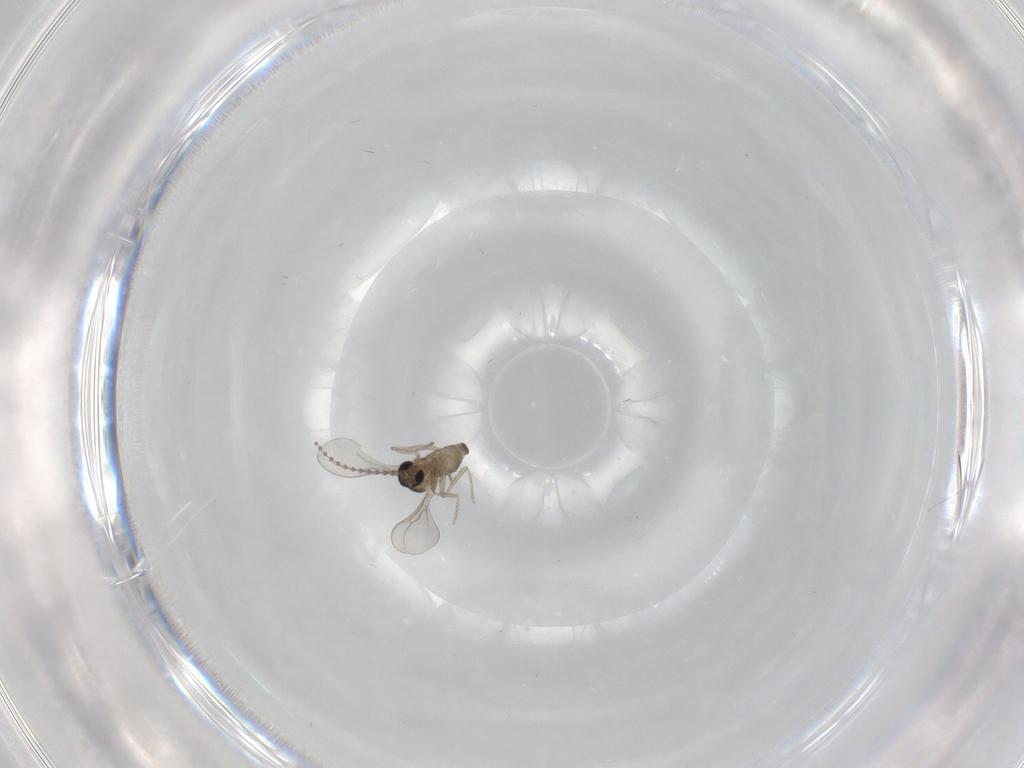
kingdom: Animalia
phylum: Arthropoda
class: Insecta
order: Diptera
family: Cecidomyiidae
